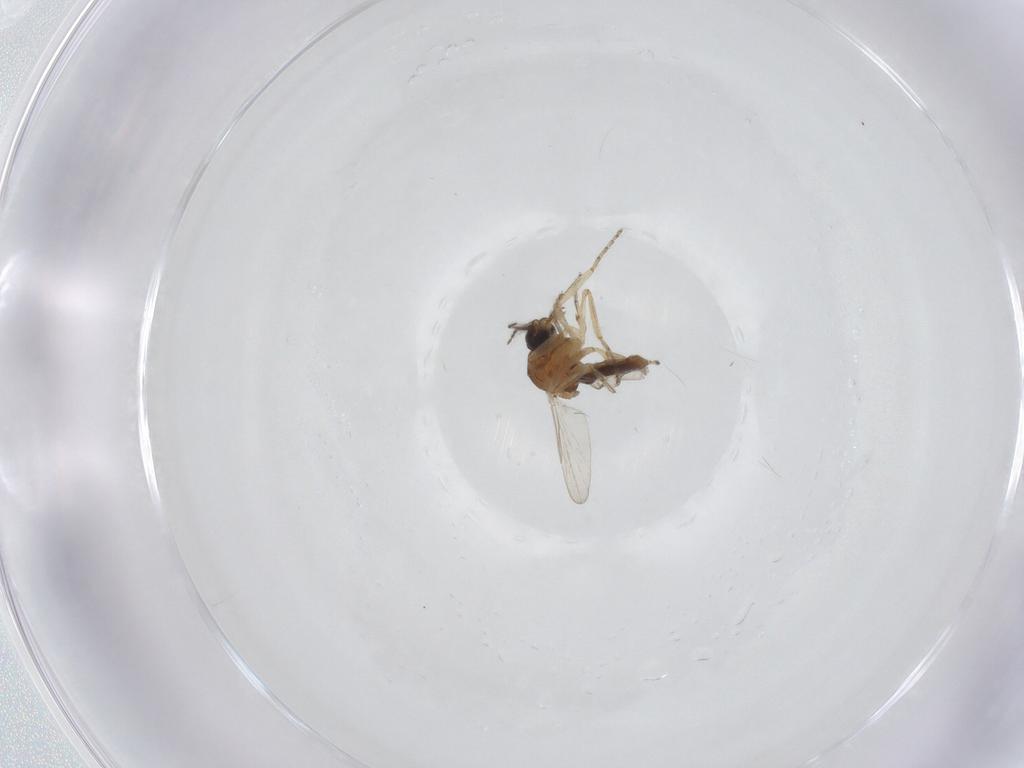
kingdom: Animalia
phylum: Arthropoda
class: Insecta
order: Diptera
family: Ceratopogonidae
